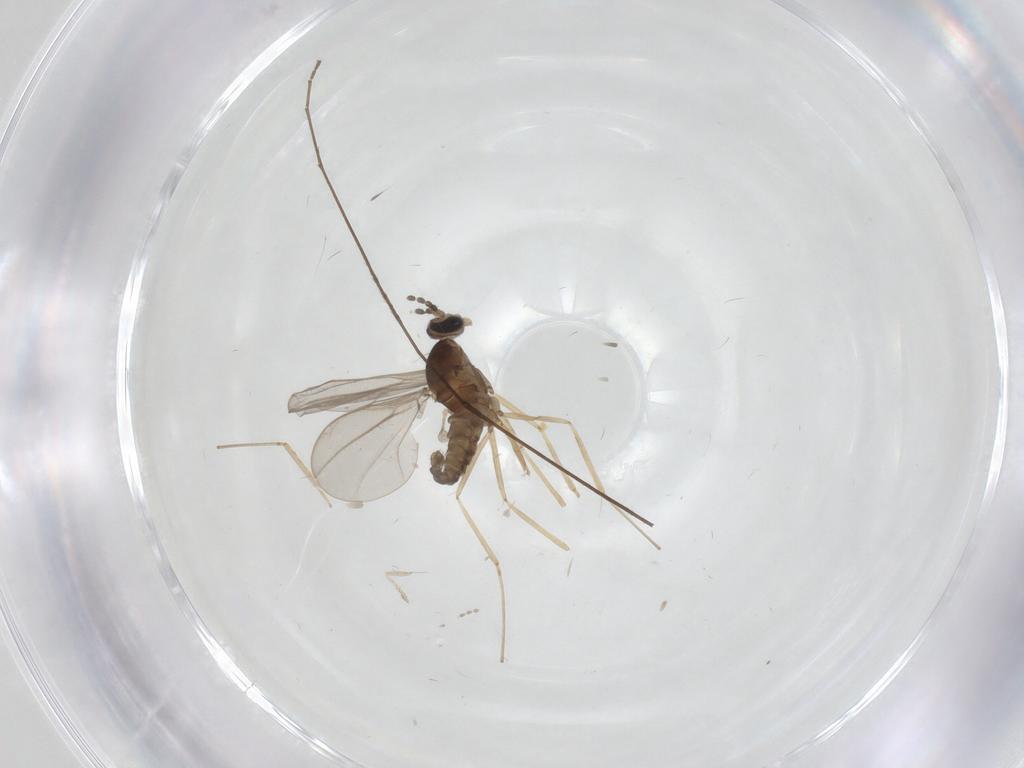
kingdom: Animalia
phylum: Arthropoda
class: Insecta
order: Diptera
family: Cecidomyiidae
